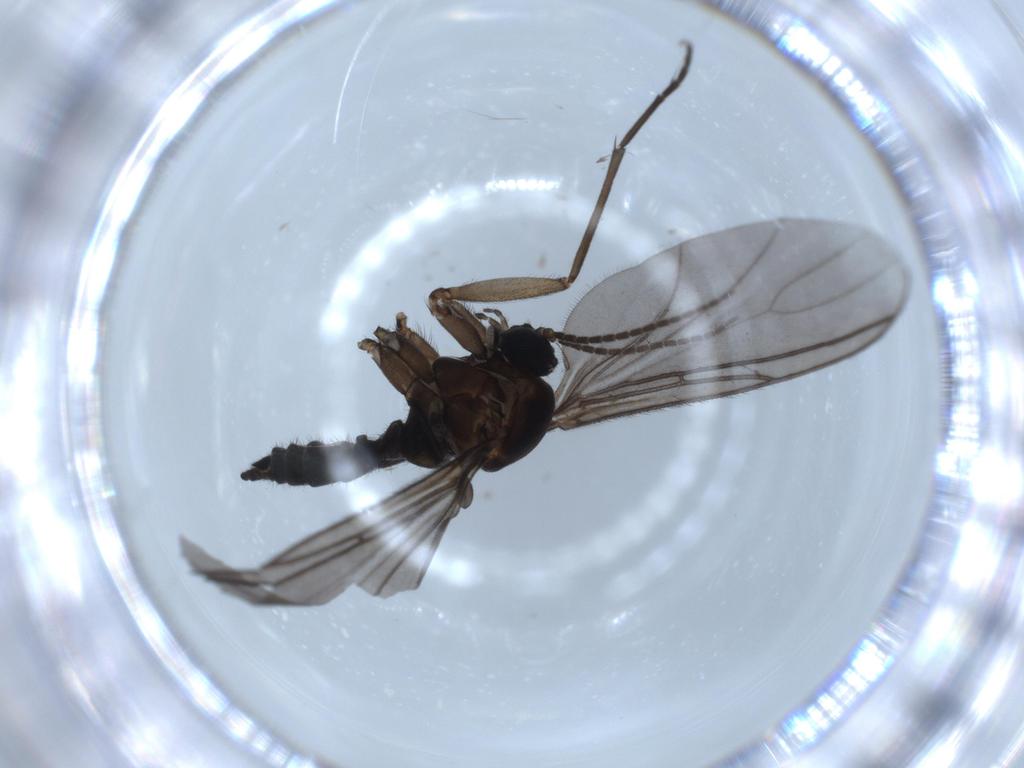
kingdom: Animalia
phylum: Arthropoda
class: Insecta
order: Diptera
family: Sciaridae
